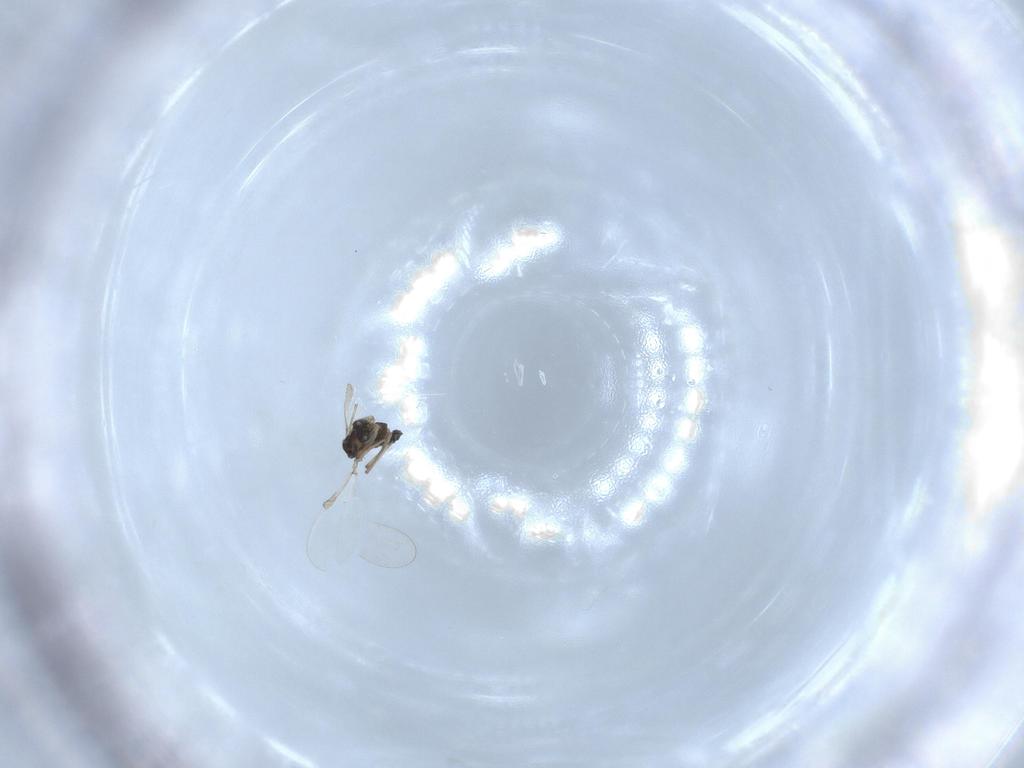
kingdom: Animalia
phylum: Arthropoda
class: Insecta
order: Diptera
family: Chironomidae
